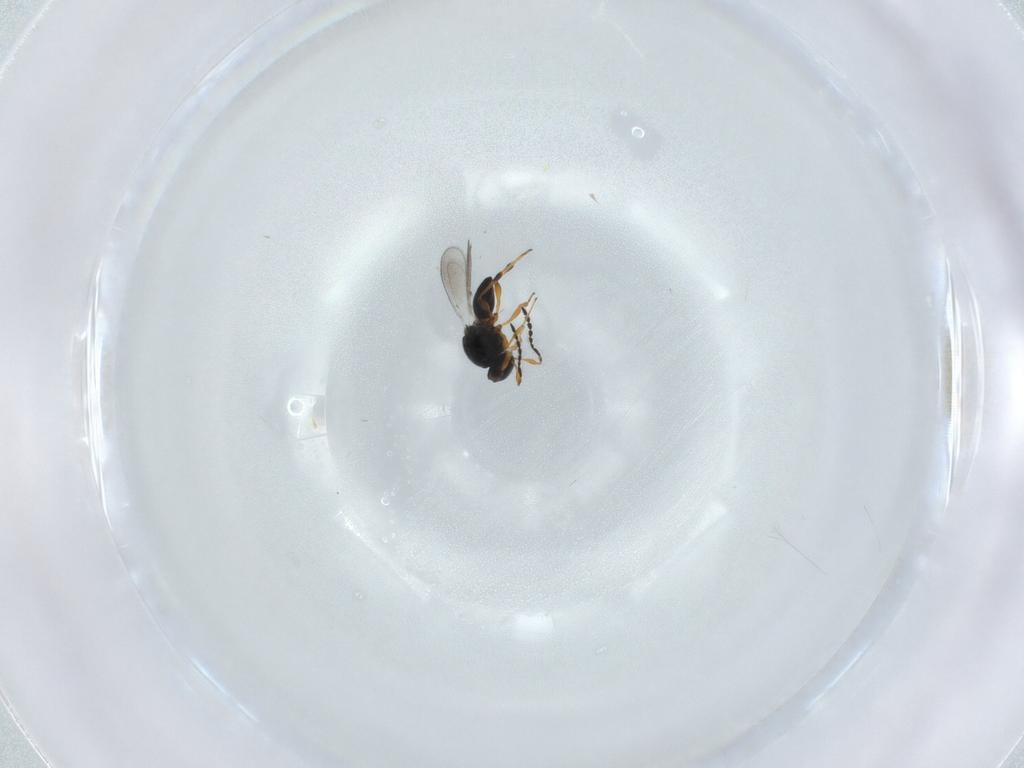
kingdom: Animalia
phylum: Arthropoda
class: Insecta
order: Hymenoptera
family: Platygastridae
